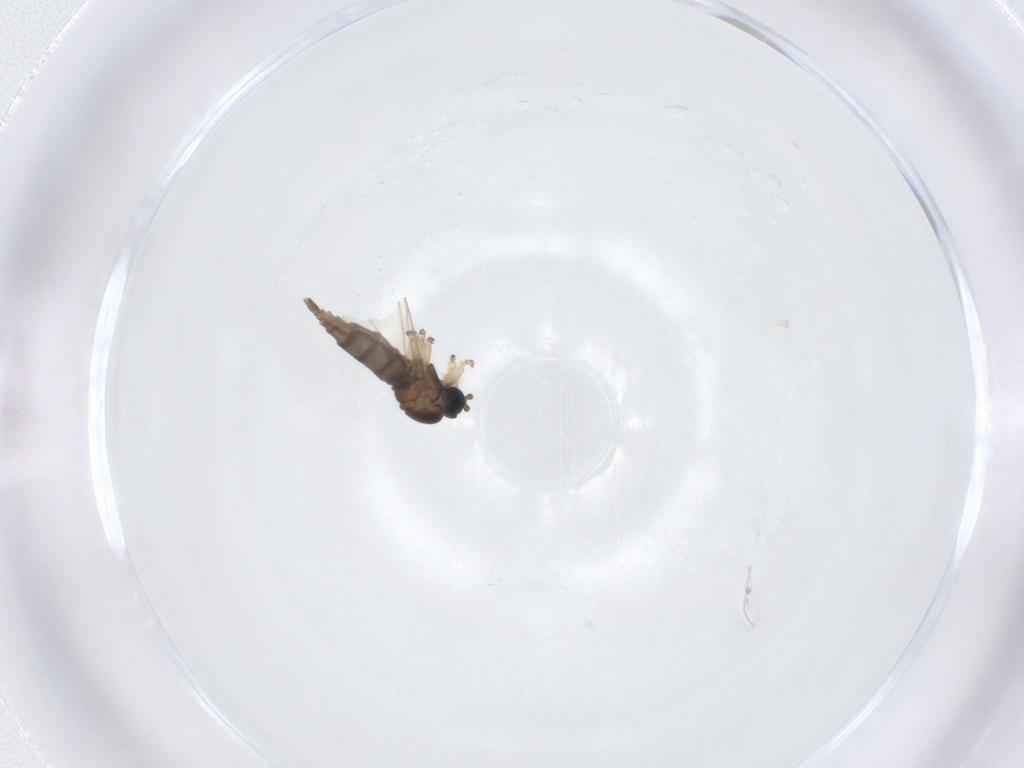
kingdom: Animalia
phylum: Arthropoda
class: Insecta
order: Diptera
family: Sciaridae
